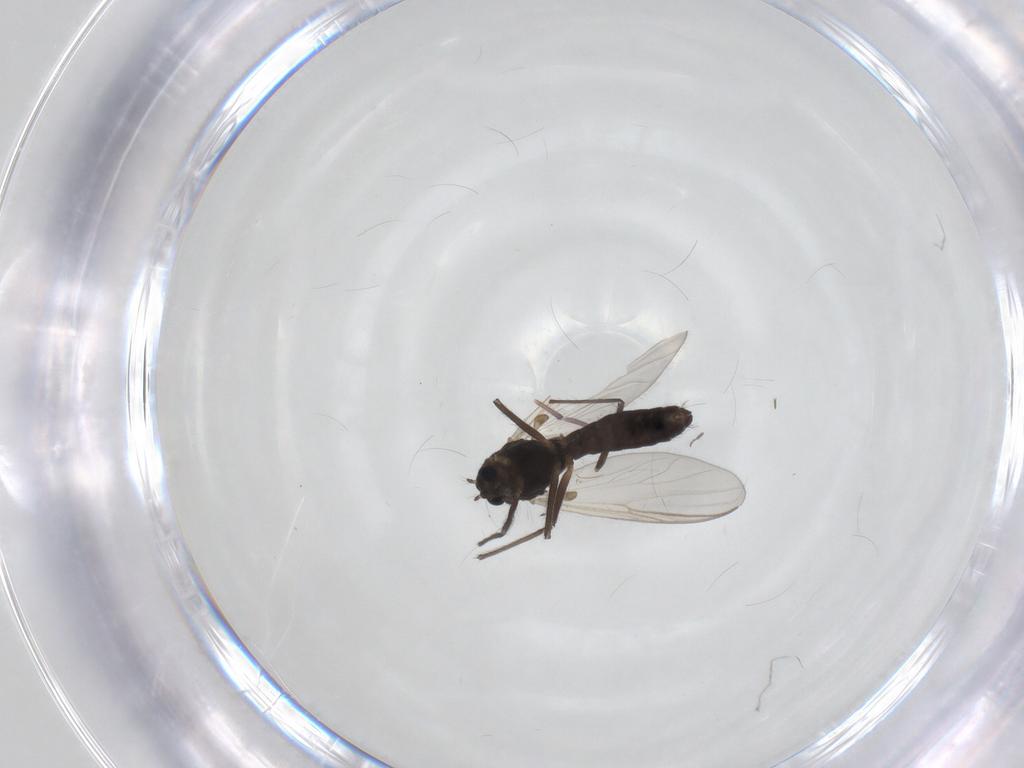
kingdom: Animalia
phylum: Arthropoda
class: Insecta
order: Diptera
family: Chironomidae
